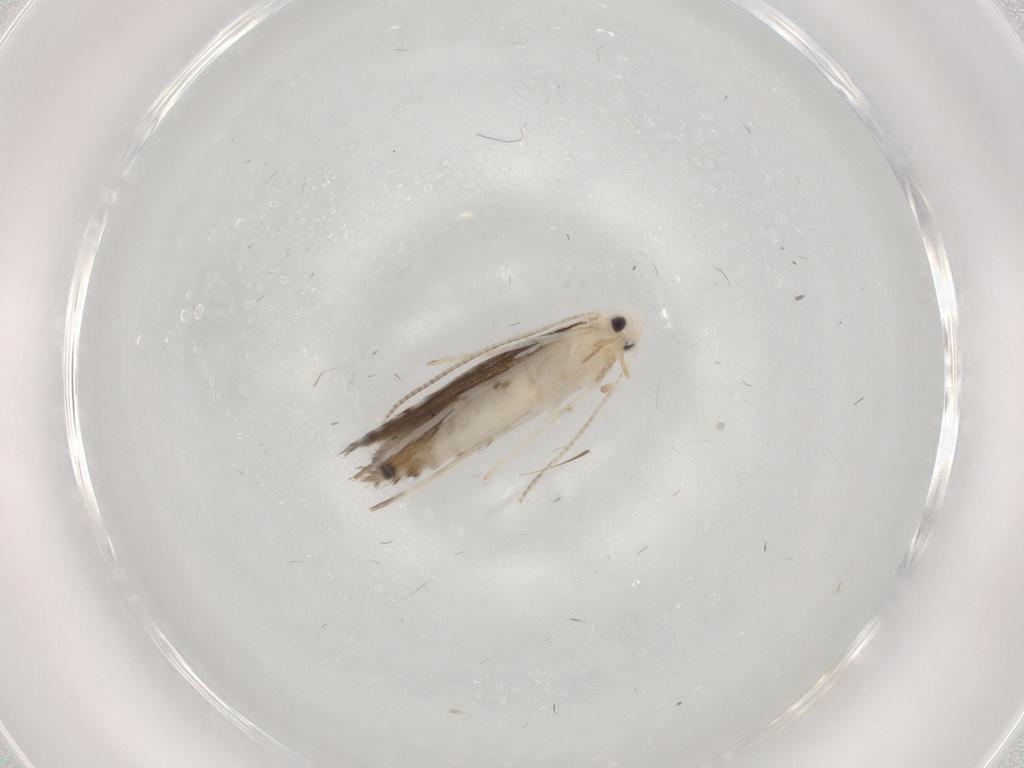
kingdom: Animalia
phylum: Arthropoda
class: Insecta
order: Lepidoptera
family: Nepticulidae
